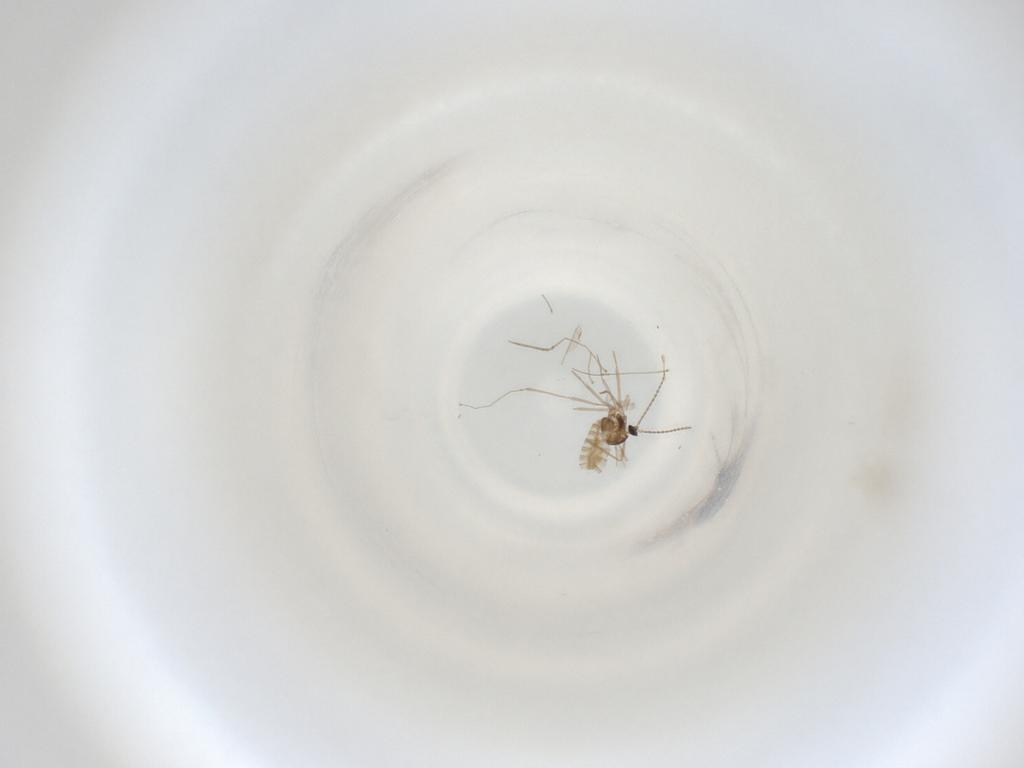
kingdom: Animalia
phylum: Arthropoda
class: Insecta
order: Diptera
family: Cecidomyiidae
